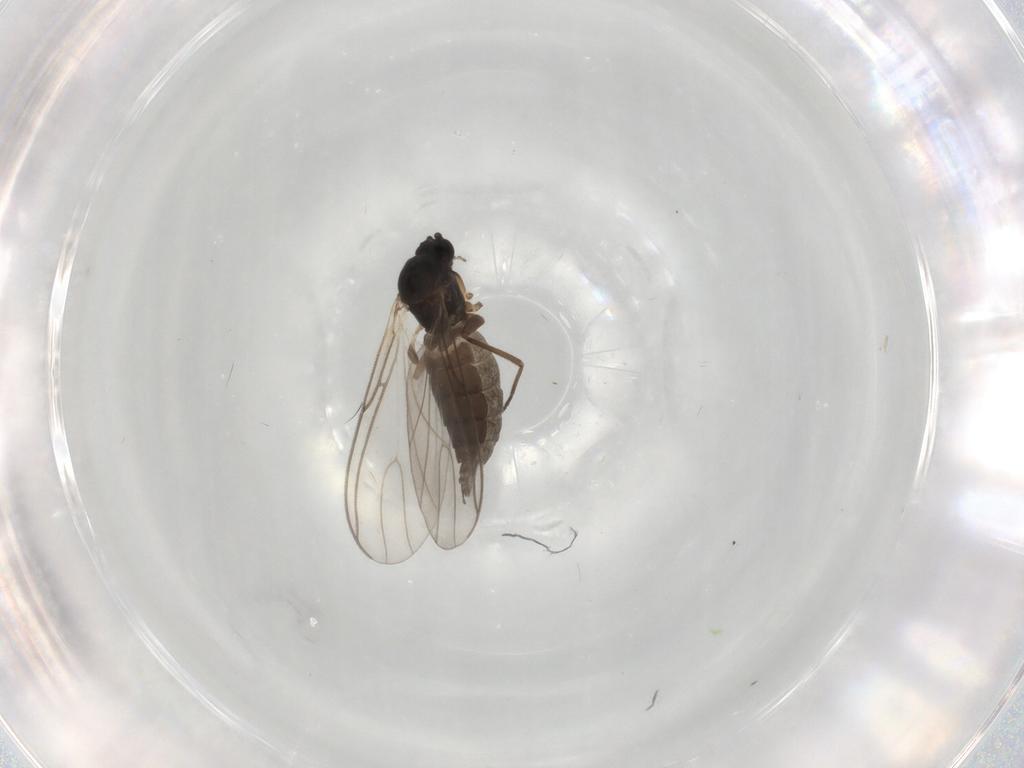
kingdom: Animalia
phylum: Arthropoda
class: Insecta
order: Diptera
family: Sciaridae
